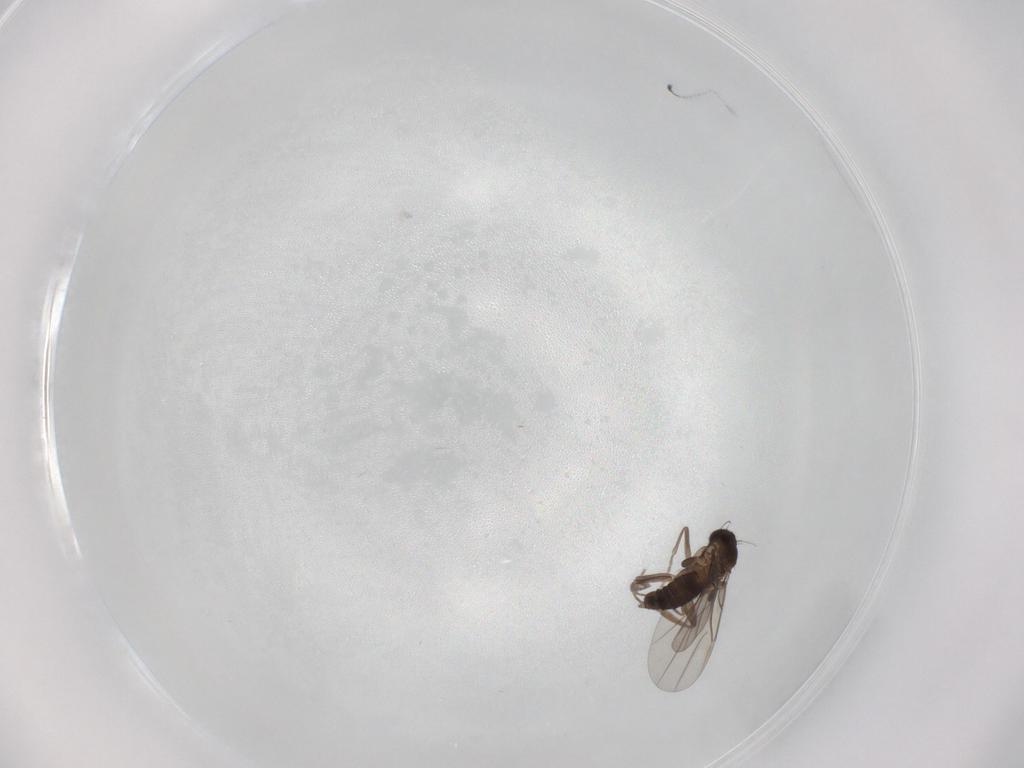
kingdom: Animalia
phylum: Arthropoda
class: Insecta
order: Diptera
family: Phoridae
